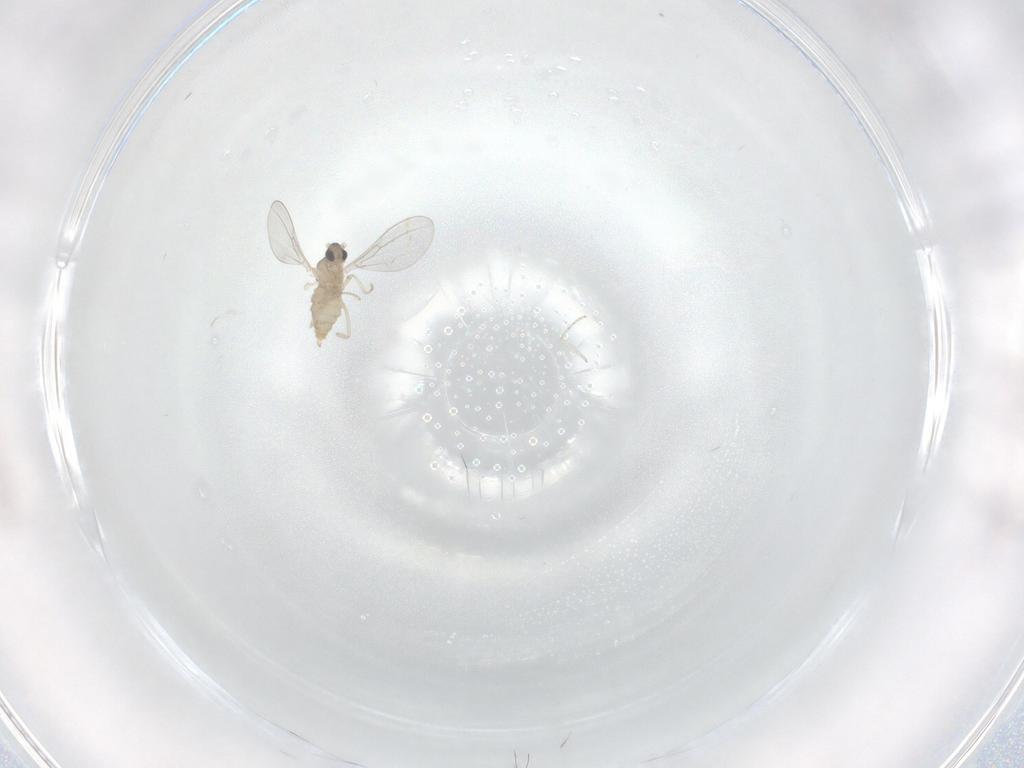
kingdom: Animalia
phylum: Arthropoda
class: Insecta
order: Diptera
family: Cecidomyiidae
